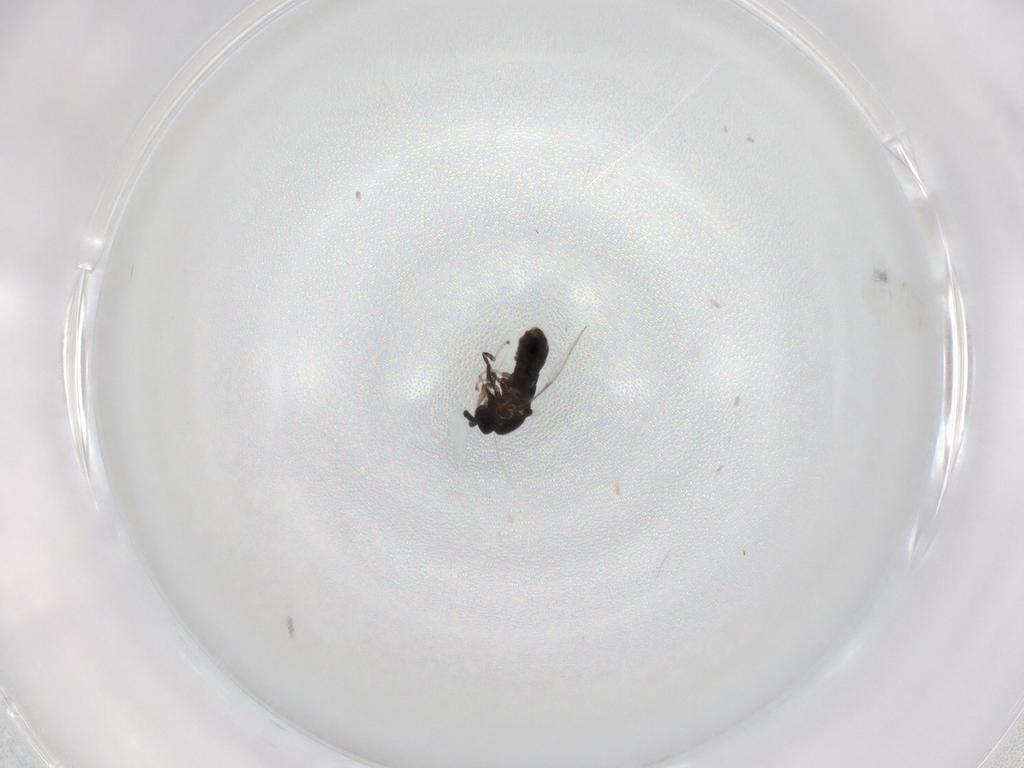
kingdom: Animalia
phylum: Arthropoda
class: Insecta
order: Diptera
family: Scatopsidae
